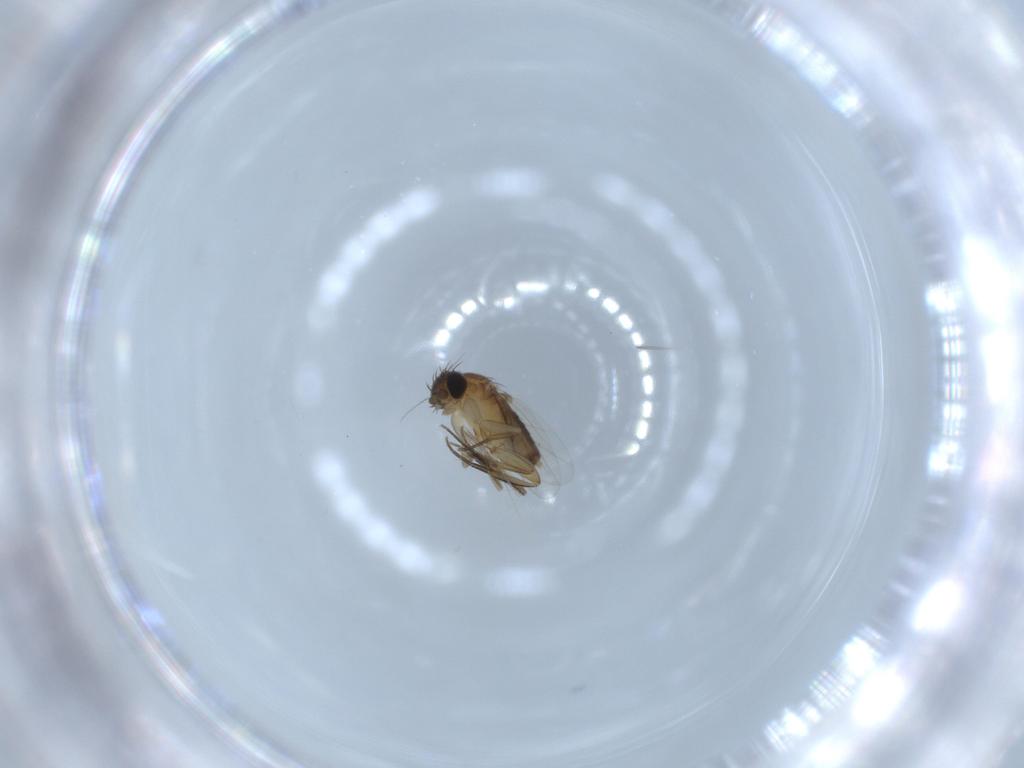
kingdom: Animalia
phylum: Arthropoda
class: Insecta
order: Diptera
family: Phoridae
